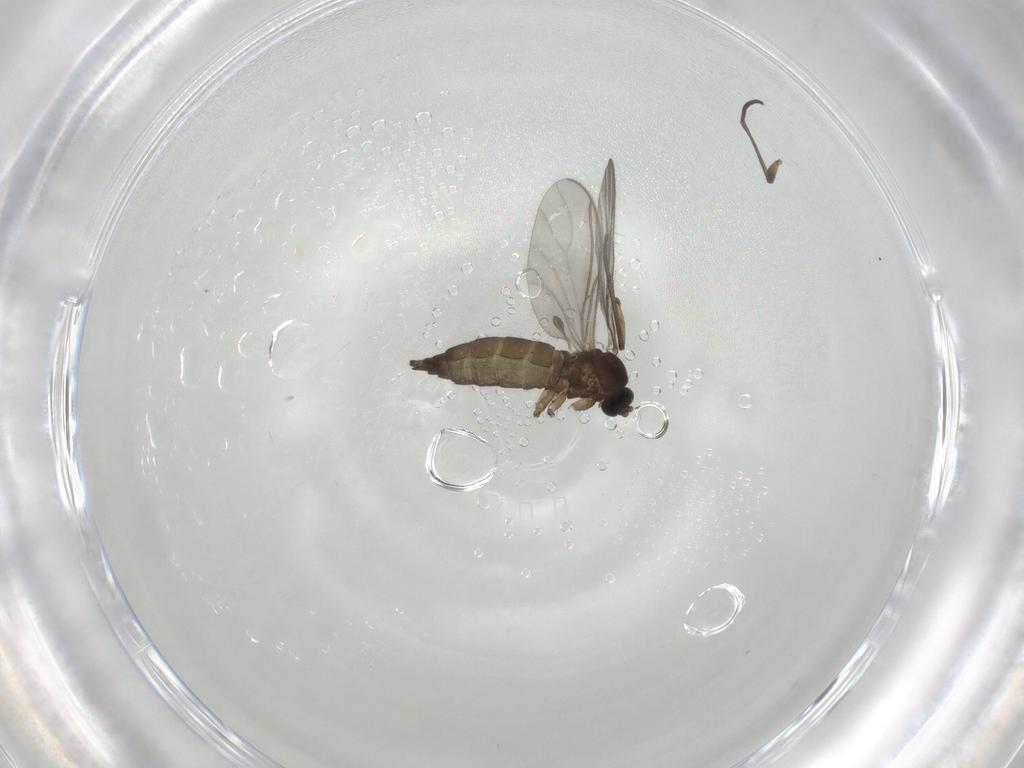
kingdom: Animalia
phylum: Arthropoda
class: Insecta
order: Diptera
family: Sciaridae
